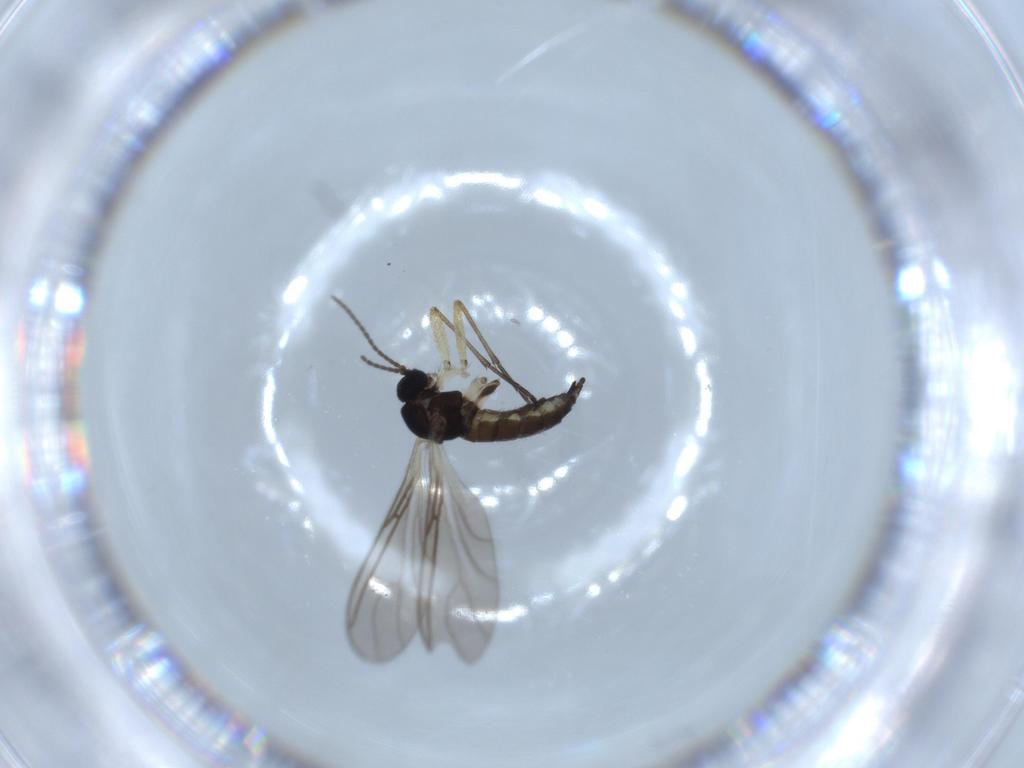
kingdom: Animalia
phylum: Arthropoda
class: Insecta
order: Diptera
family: Sciaridae
